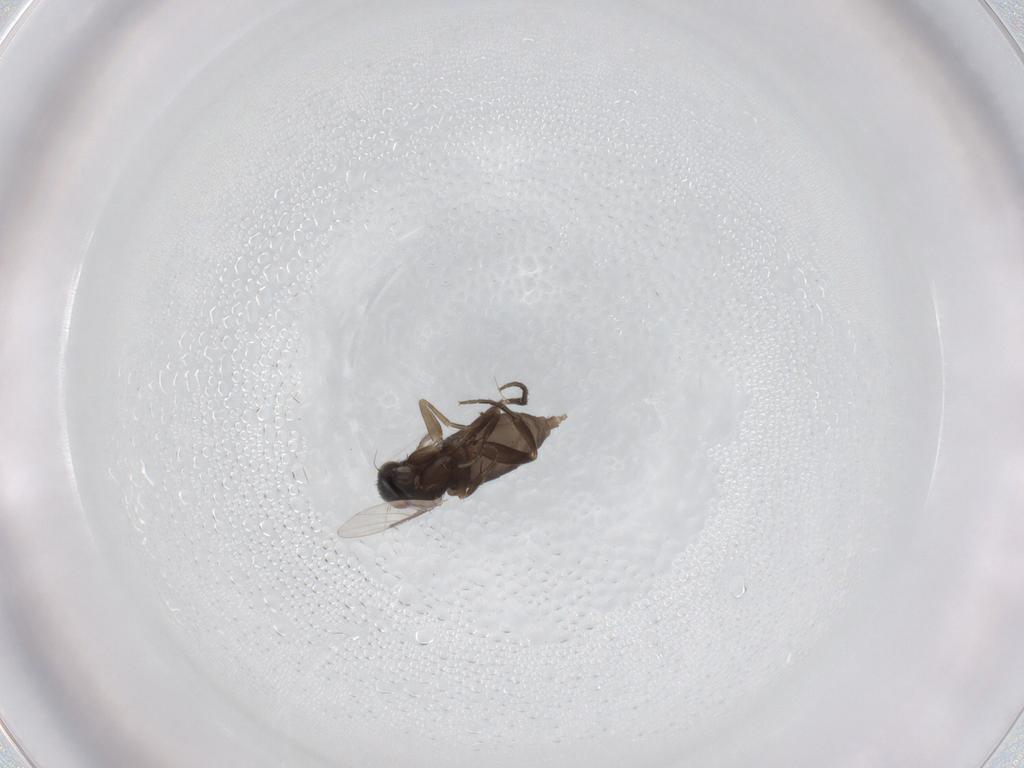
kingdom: Animalia
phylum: Arthropoda
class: Insecta
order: Diptera
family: Phoridae
